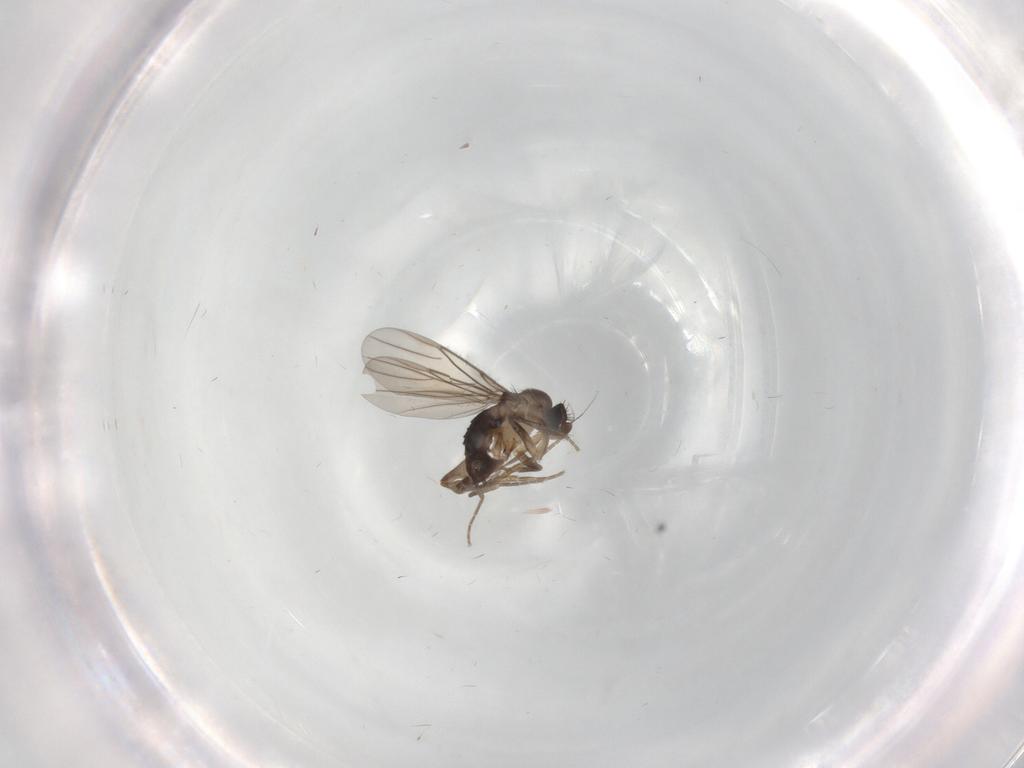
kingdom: Animalia
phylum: Arthropoda
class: Insecta
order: Diptera
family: Phoridae
